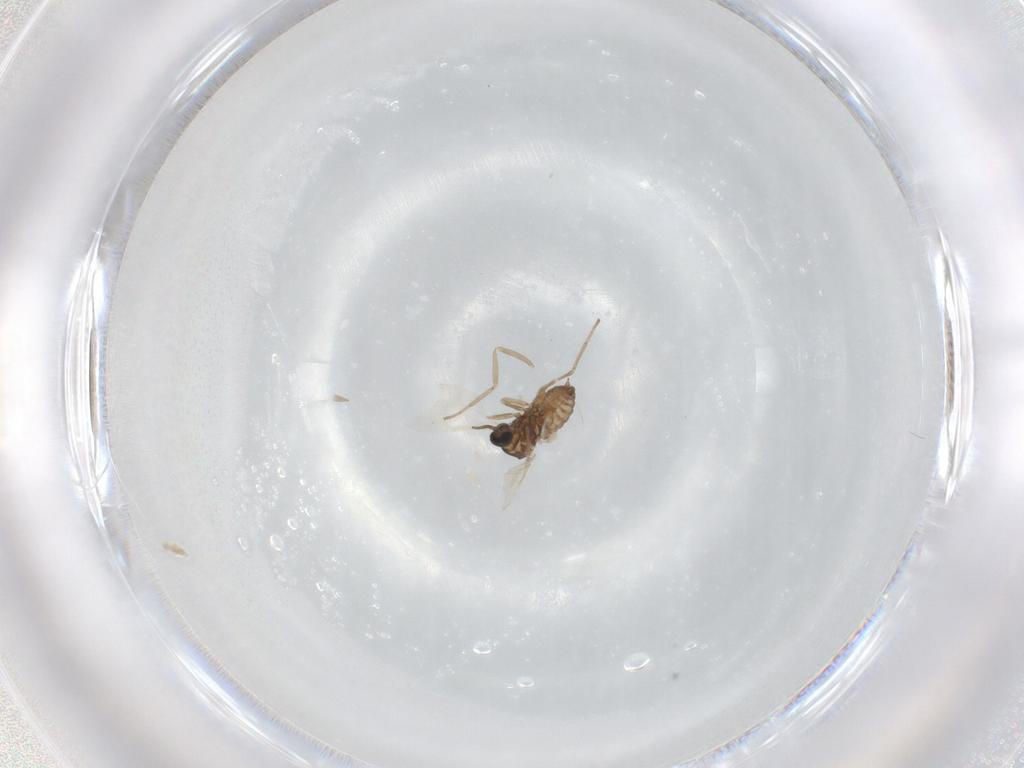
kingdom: Animalia
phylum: Arthropoda
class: Insecta
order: Diptera
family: Cecidomyiidae
